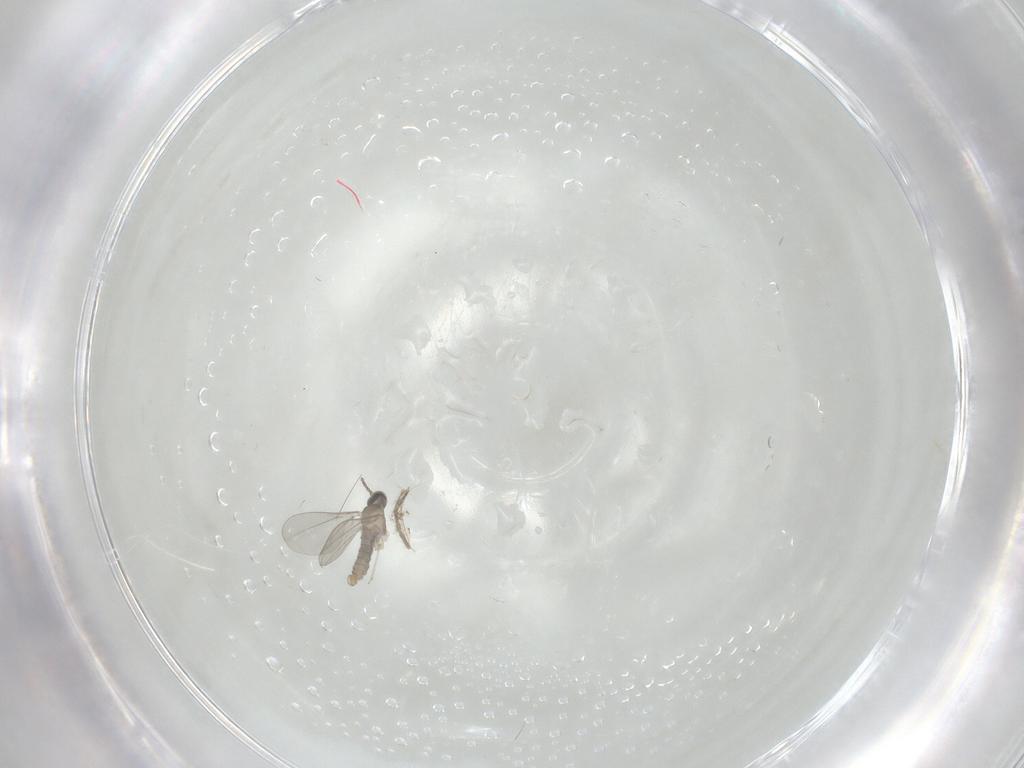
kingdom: Animalia
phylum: Arthropoda
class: Insecta
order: Diptera
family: Cecidomyiidae
